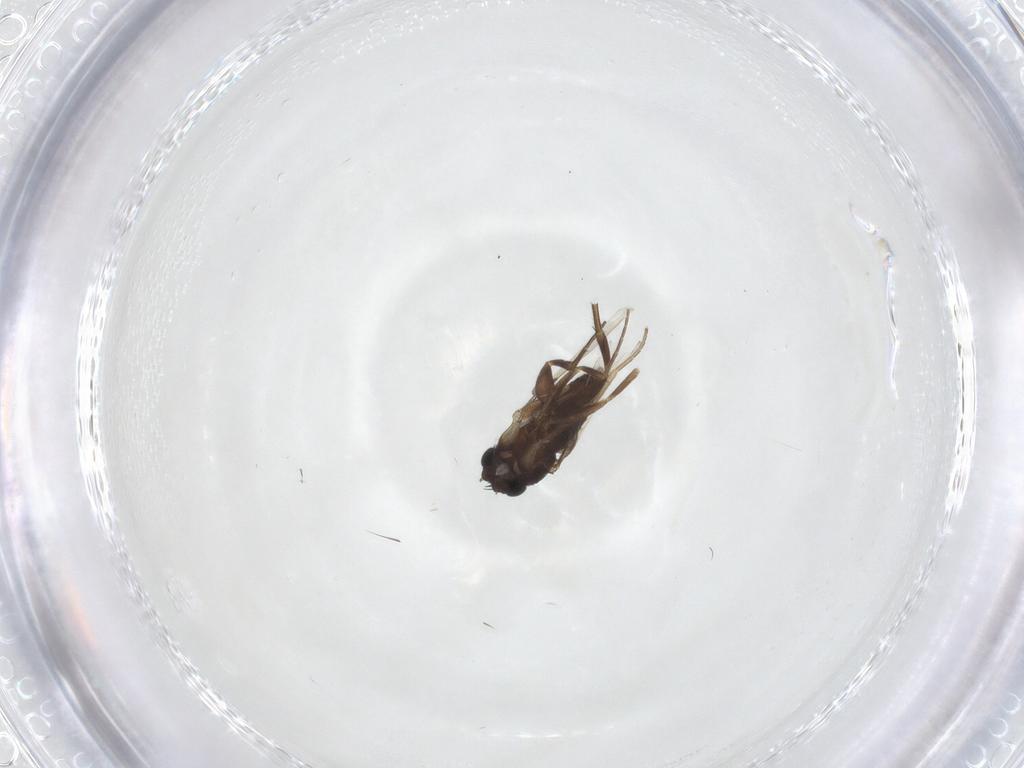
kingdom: Animalia
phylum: Arthropoda
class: Insecta
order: Diptera
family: Phoridae
